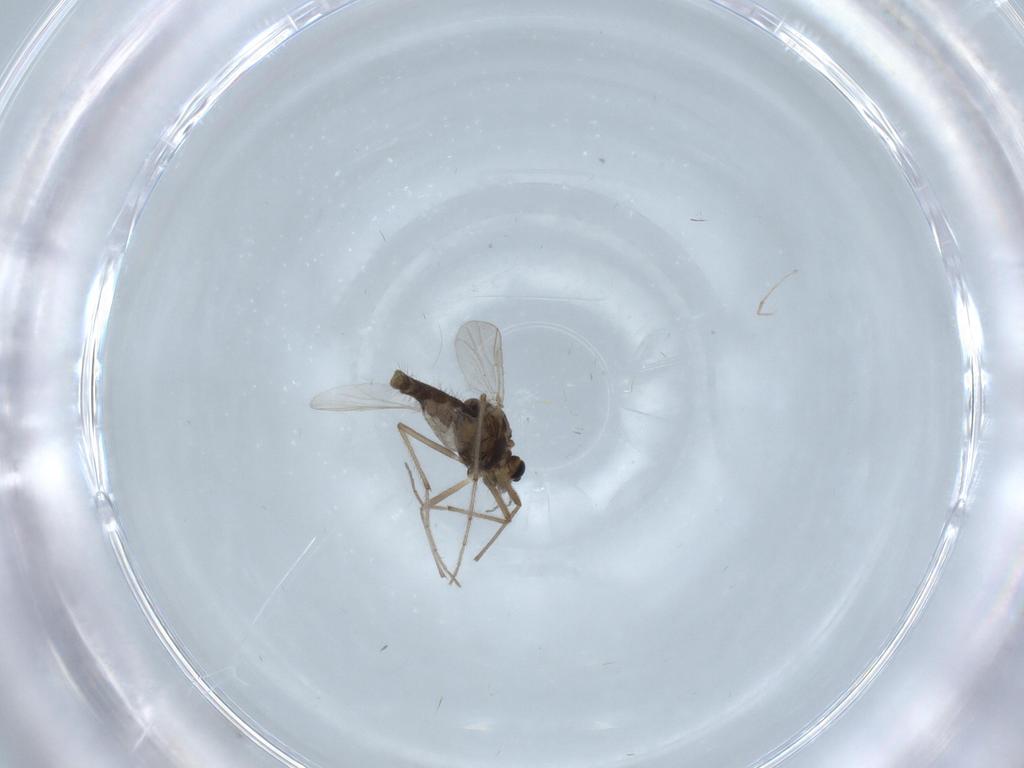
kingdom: Animalia
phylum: Arthropoda
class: Insecta
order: Diptera
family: Chironomidae
